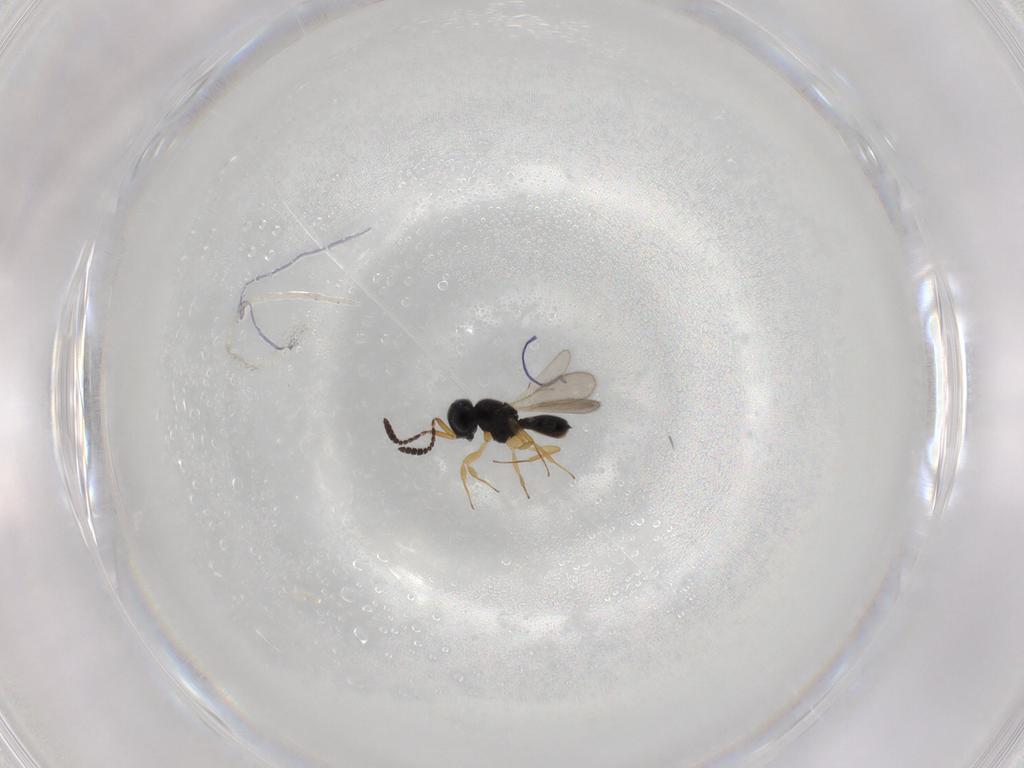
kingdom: Animalia
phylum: Arthropoda
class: Insecta
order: Hymenoptera
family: Scelionidae
